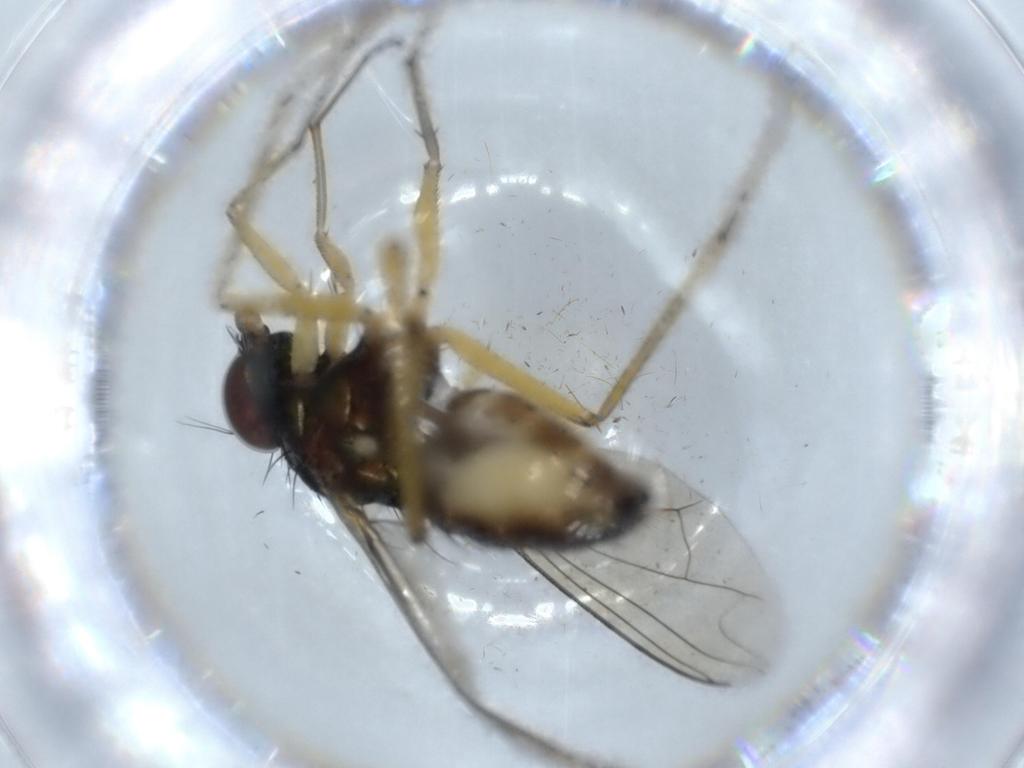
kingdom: Animalia
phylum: Arthropoda
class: Insecta
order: Diptera
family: Dolichopodidae
